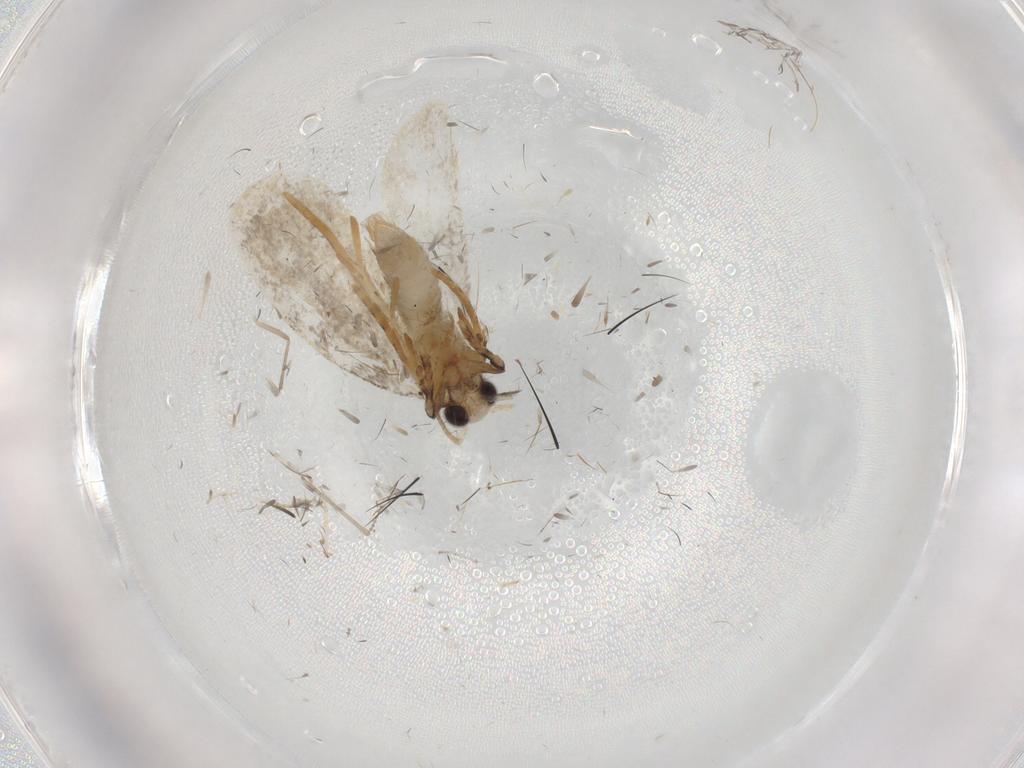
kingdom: Animalia
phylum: Arthropoda
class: Insecta
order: Lepidoptera
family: Psychidae
